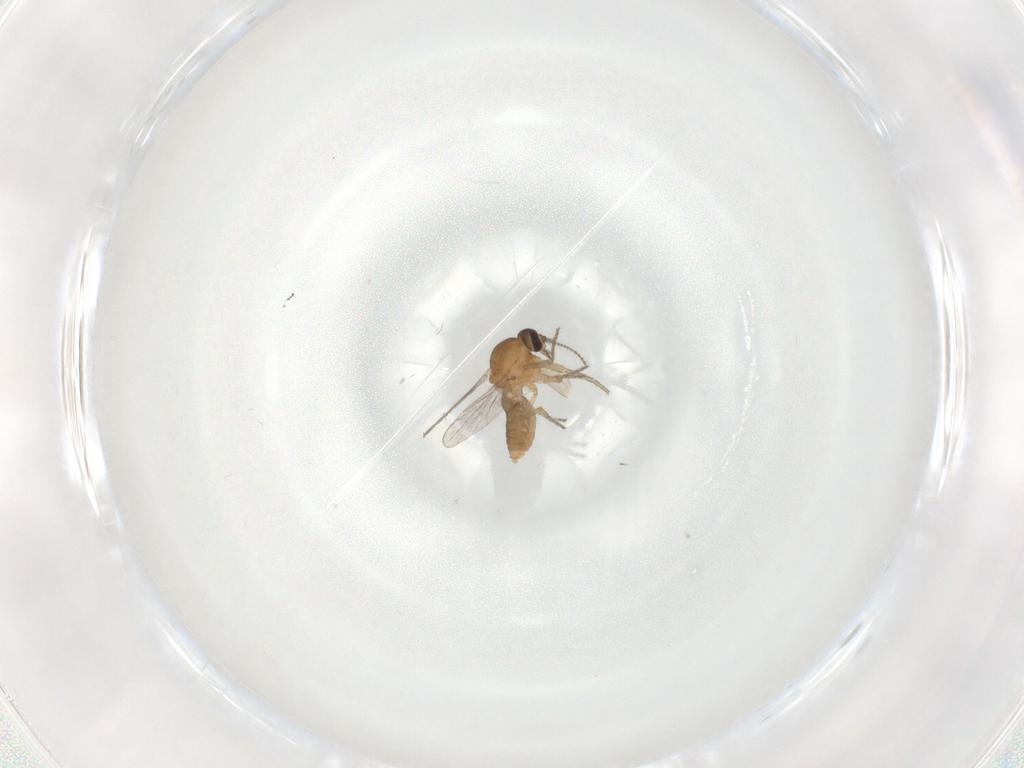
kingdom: Animalia
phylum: Arthropoda
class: Insecta
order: Diptera
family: Ceratopogonidae
